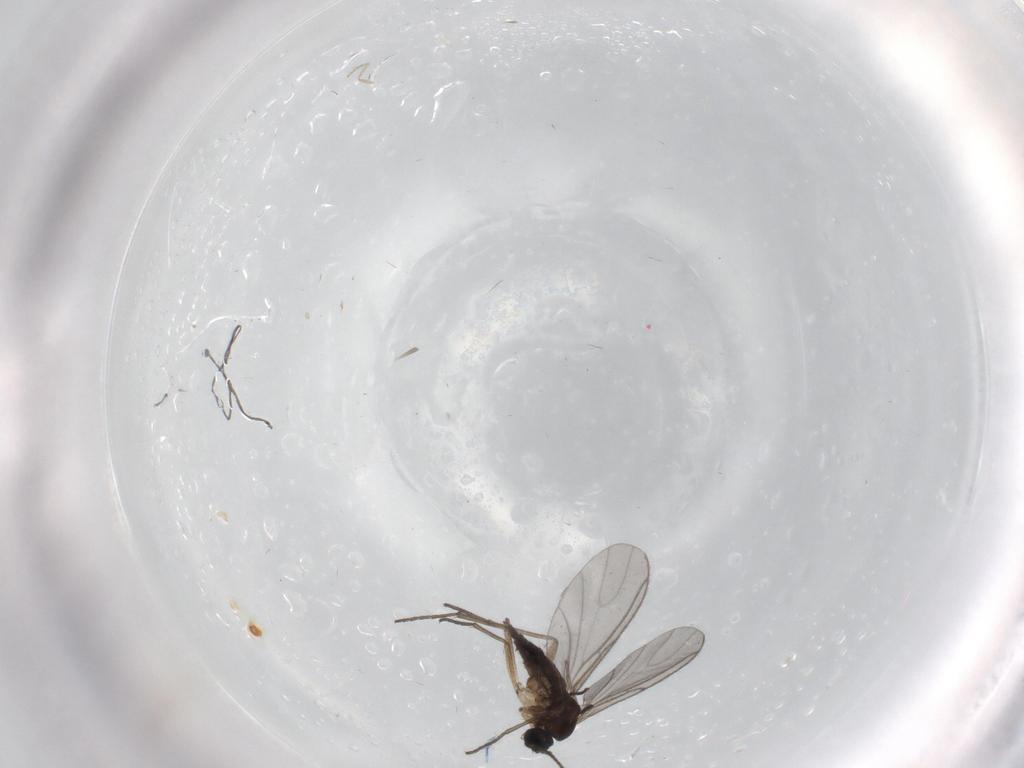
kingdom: Animalia
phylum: Arthropoda
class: Insecta
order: Diptera
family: Sciaridae
